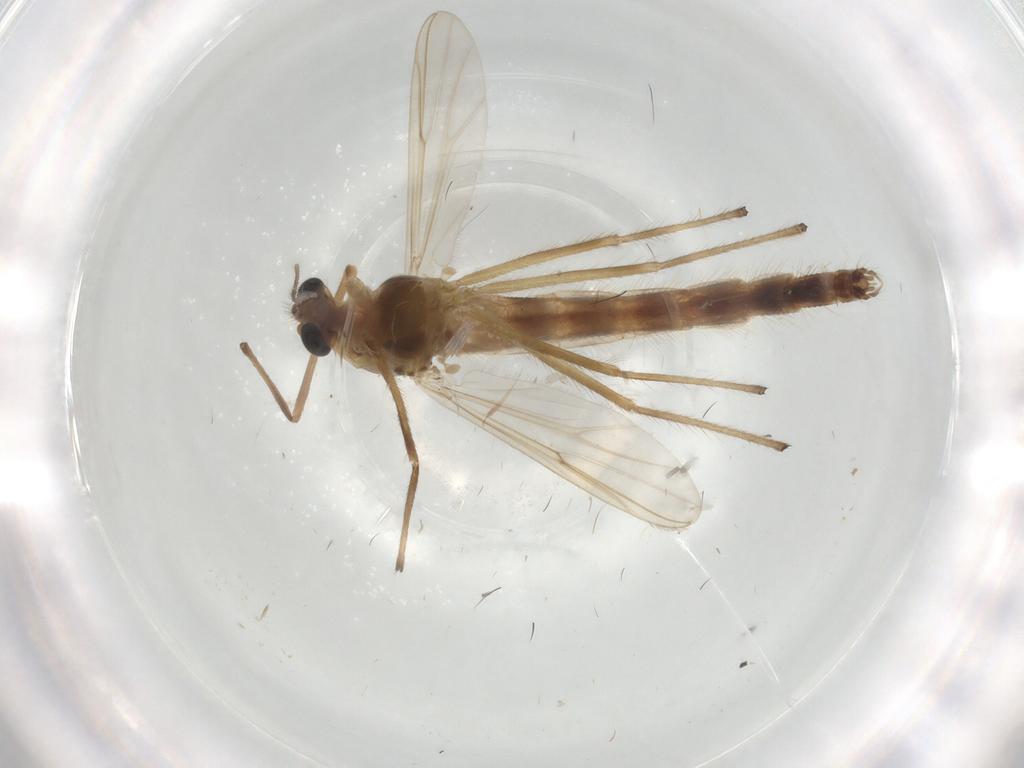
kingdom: Animalia
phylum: Arthropoda
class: Insecta
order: Diptera
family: Chironomidae
